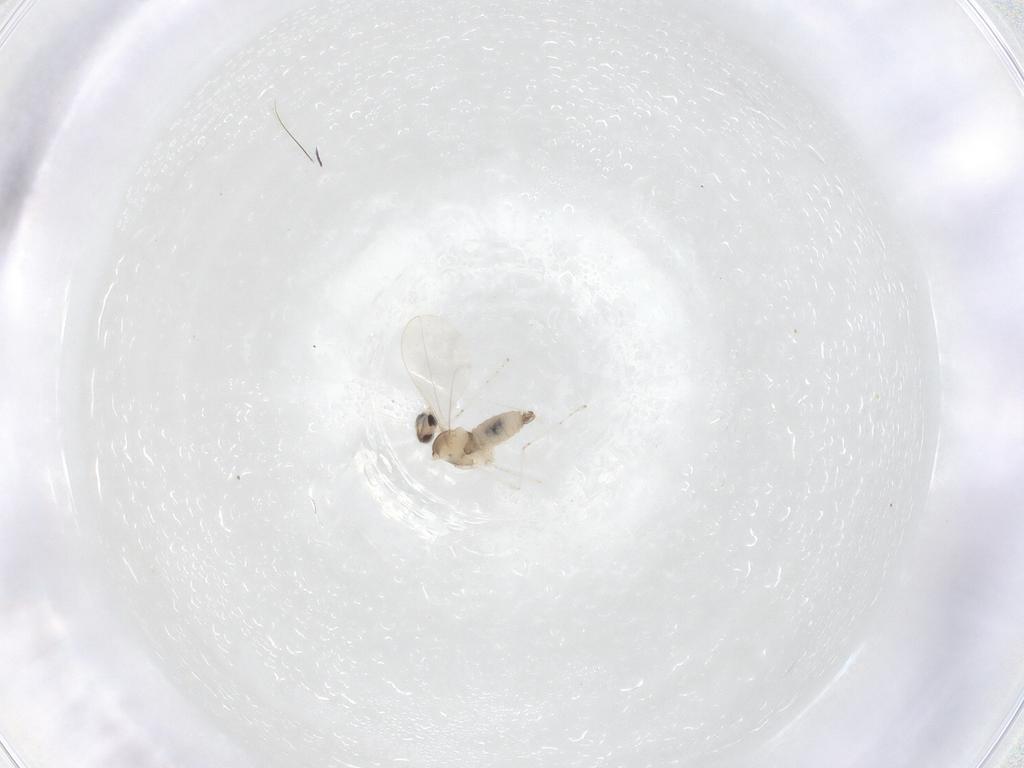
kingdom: Animalia
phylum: Arthropoda
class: Insecta
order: Diptera
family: Cecidomyiidae
